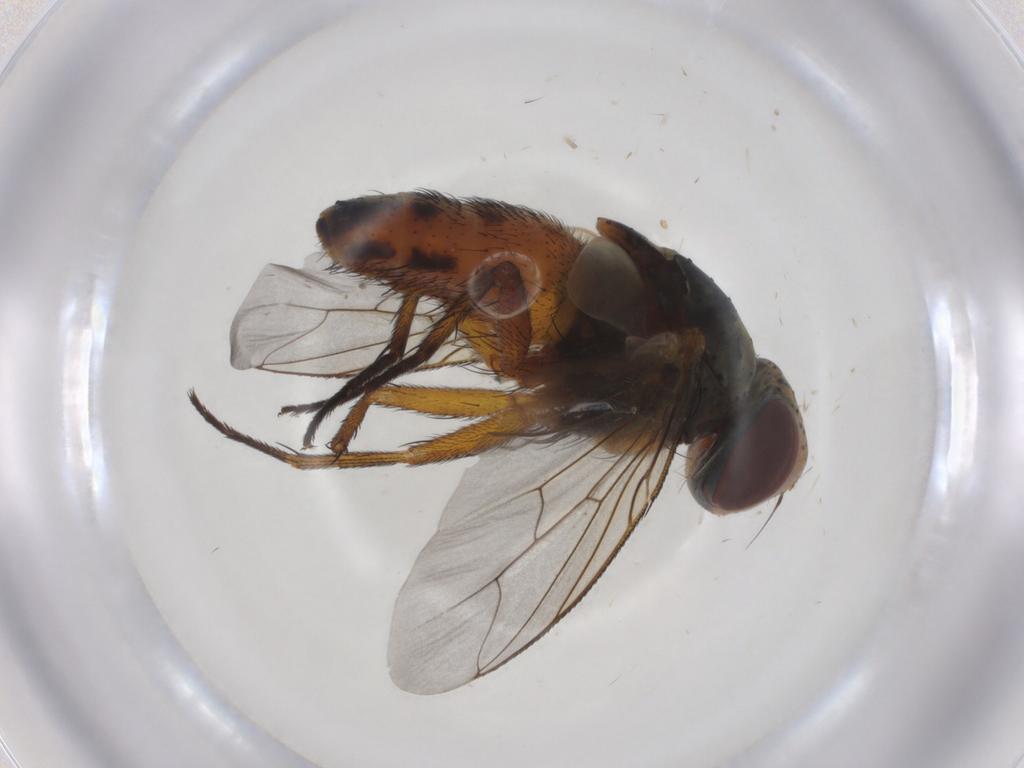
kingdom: Animalia
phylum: Arthropoda
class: Insecta
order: Diptera
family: Sarcophagidae
